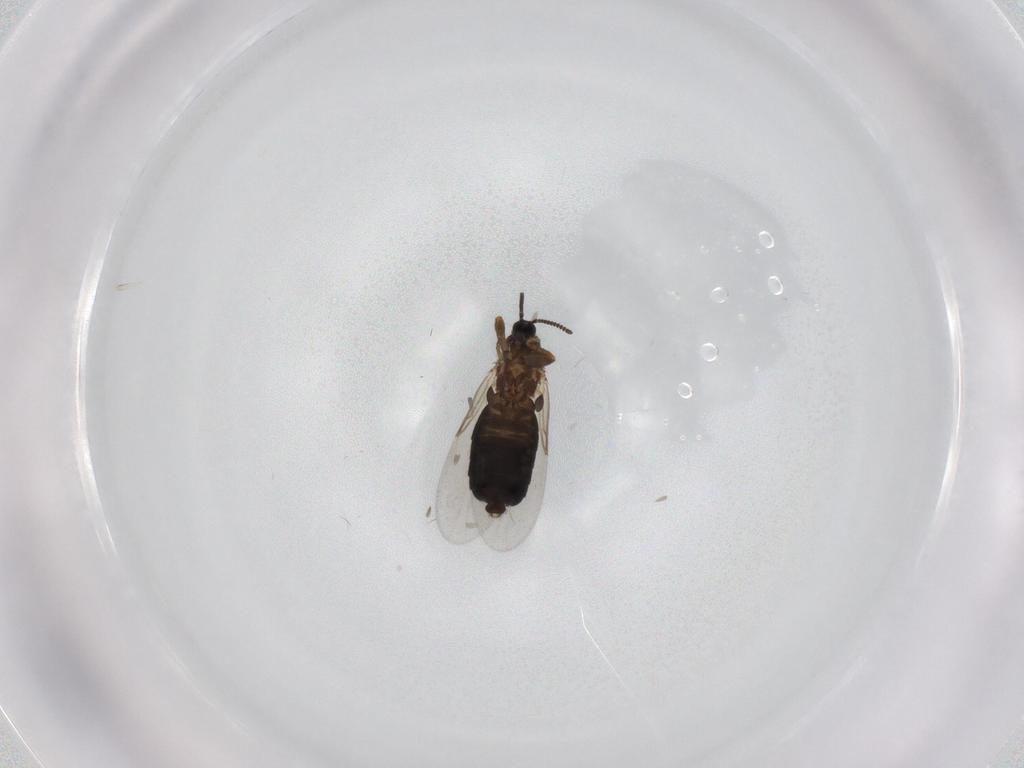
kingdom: Animalia
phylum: Arthropoda
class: Insecta
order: Diptera
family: Scatopsidae
